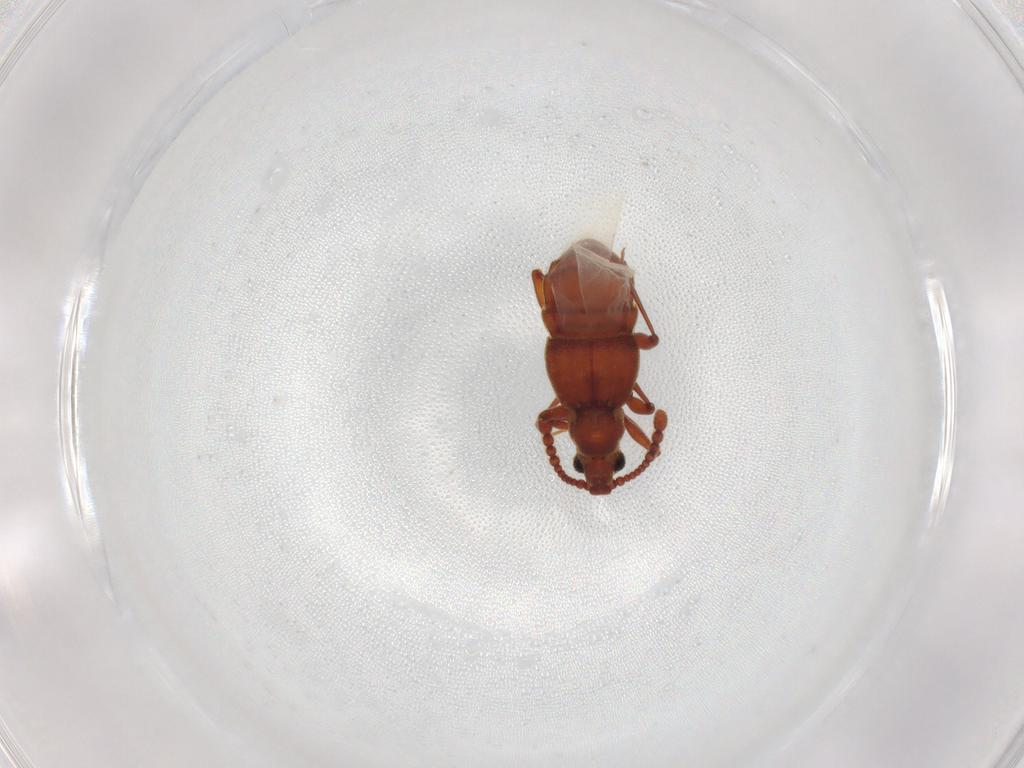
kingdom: Animalia
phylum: Arthropoda
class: Insecta
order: Coleoptera
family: Staphylinidae
